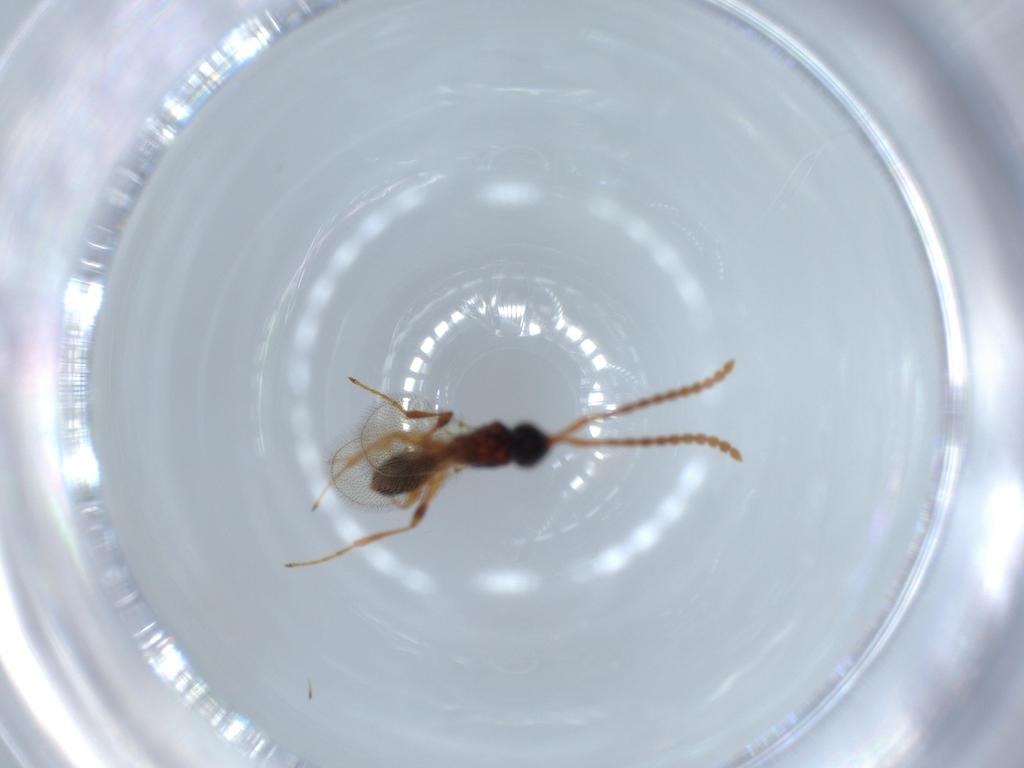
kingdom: Animalia
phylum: Arthropoda
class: Insecta
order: Hymenoptera
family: Diapriidae
